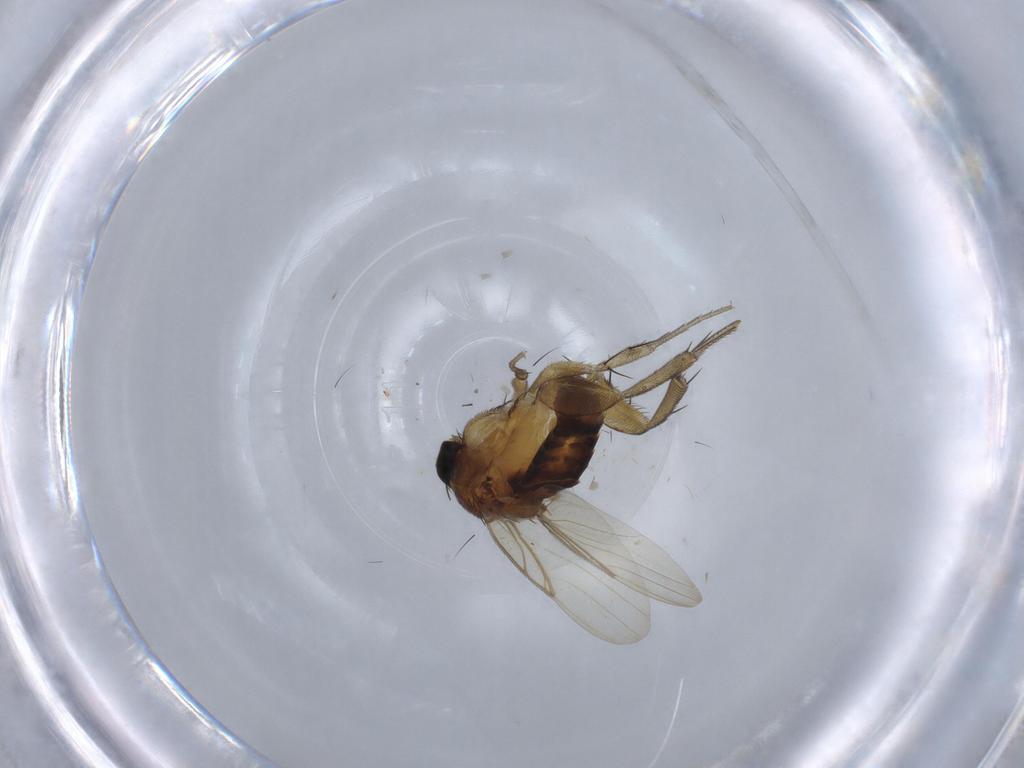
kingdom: Animalia
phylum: Arthropoda
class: Insecta
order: Diptera
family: Phoridae
